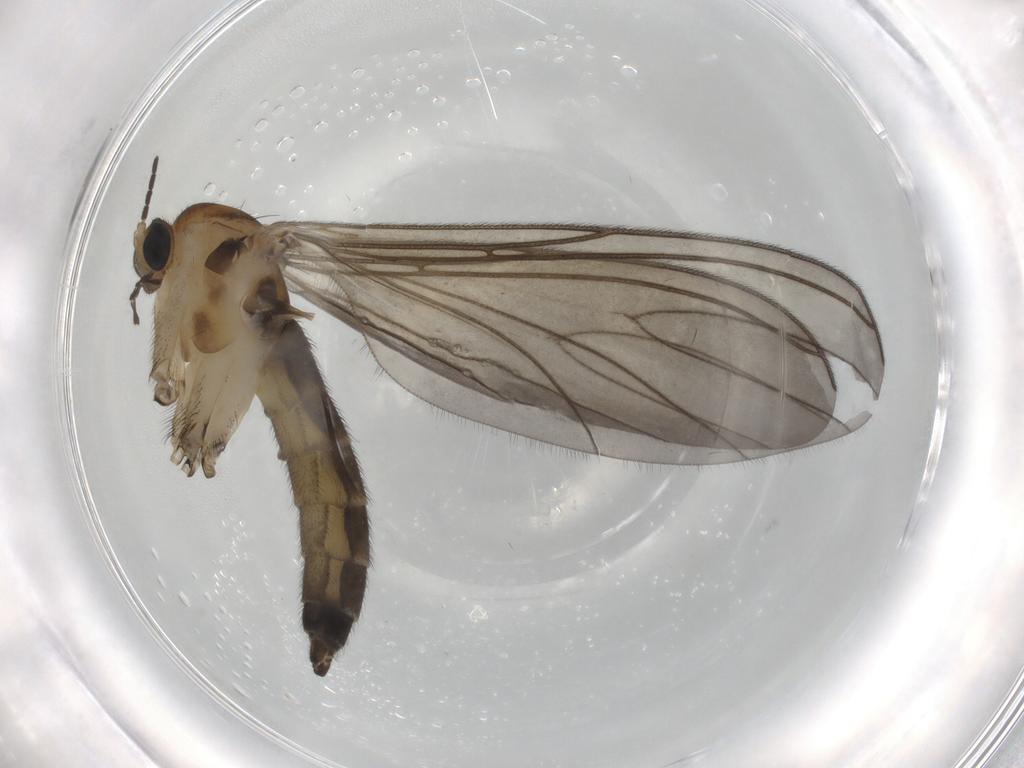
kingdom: Animalia
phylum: Arthropoda
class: Insecta
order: Diptera
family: Sciaridae
